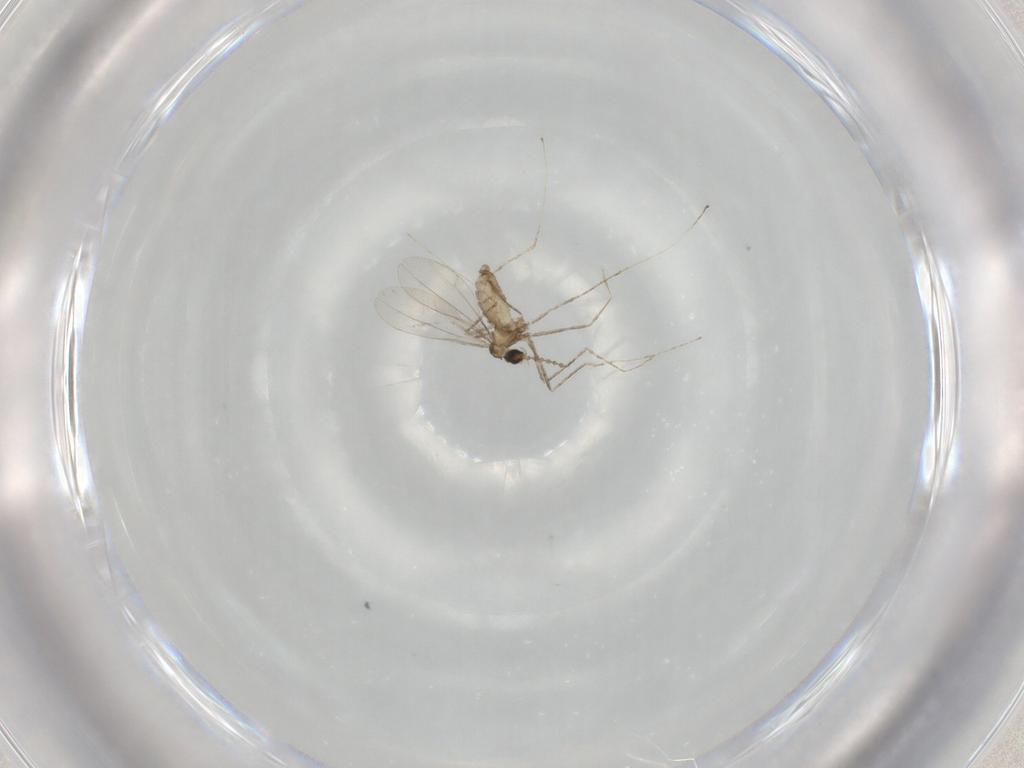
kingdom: Animalia
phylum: Arthropoda
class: Insecta
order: Diptera
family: Cecidomyiidae
